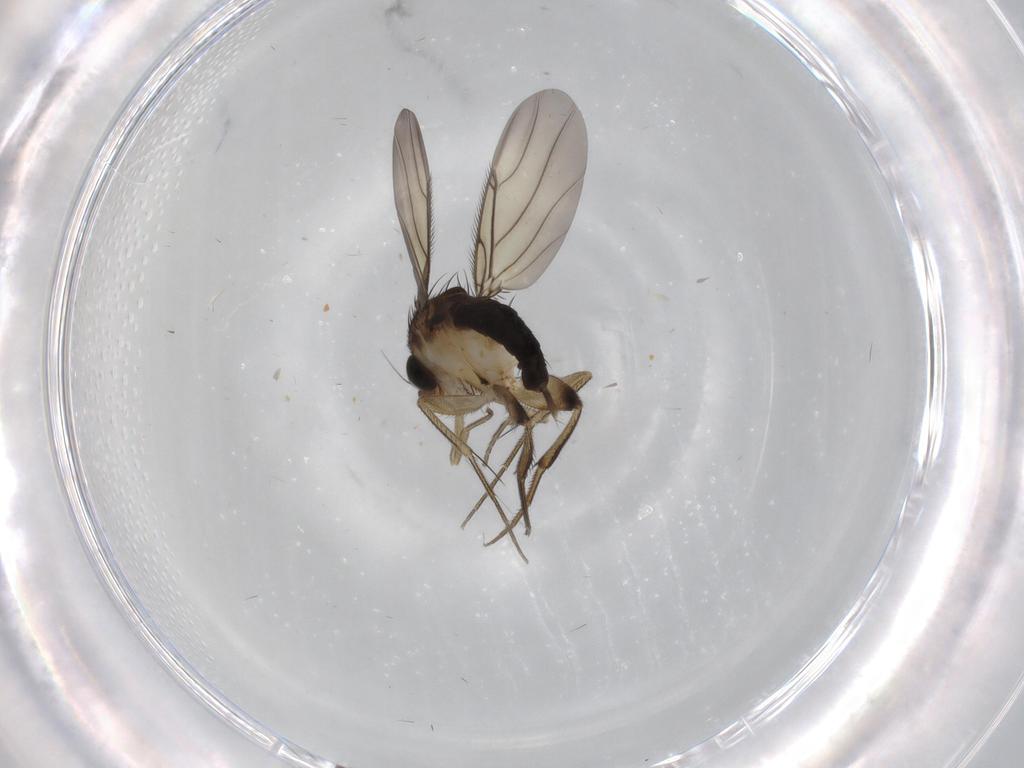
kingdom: Animalia
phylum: Arthropoda
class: Insecta
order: Diptera
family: Phoridae
